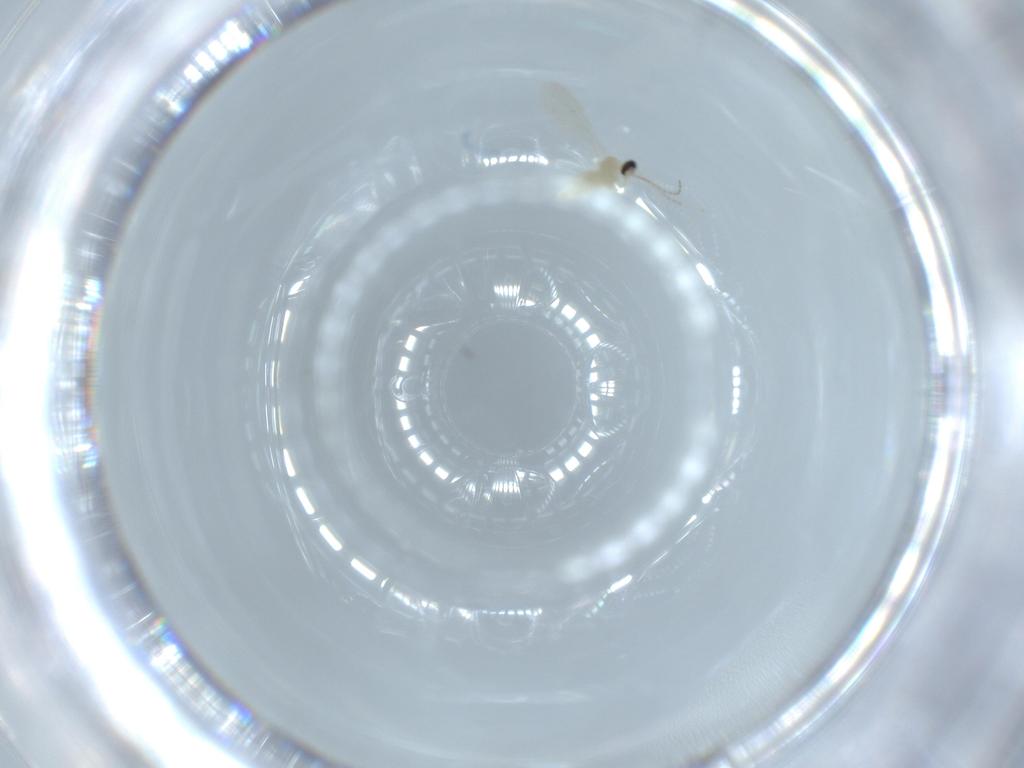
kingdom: Animalia
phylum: Arthropoda
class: Insecta
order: Diptera
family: Cecidomyiidae
